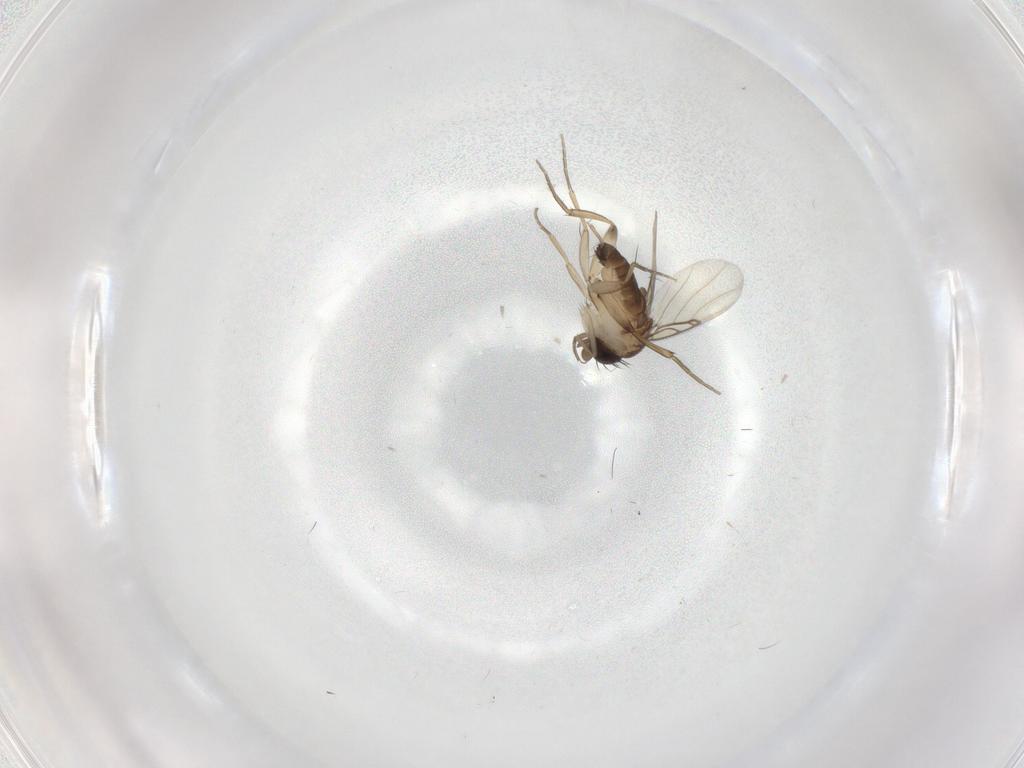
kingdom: Animalia
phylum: Arthropoda
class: Insecta
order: Diptera
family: Phoridae
